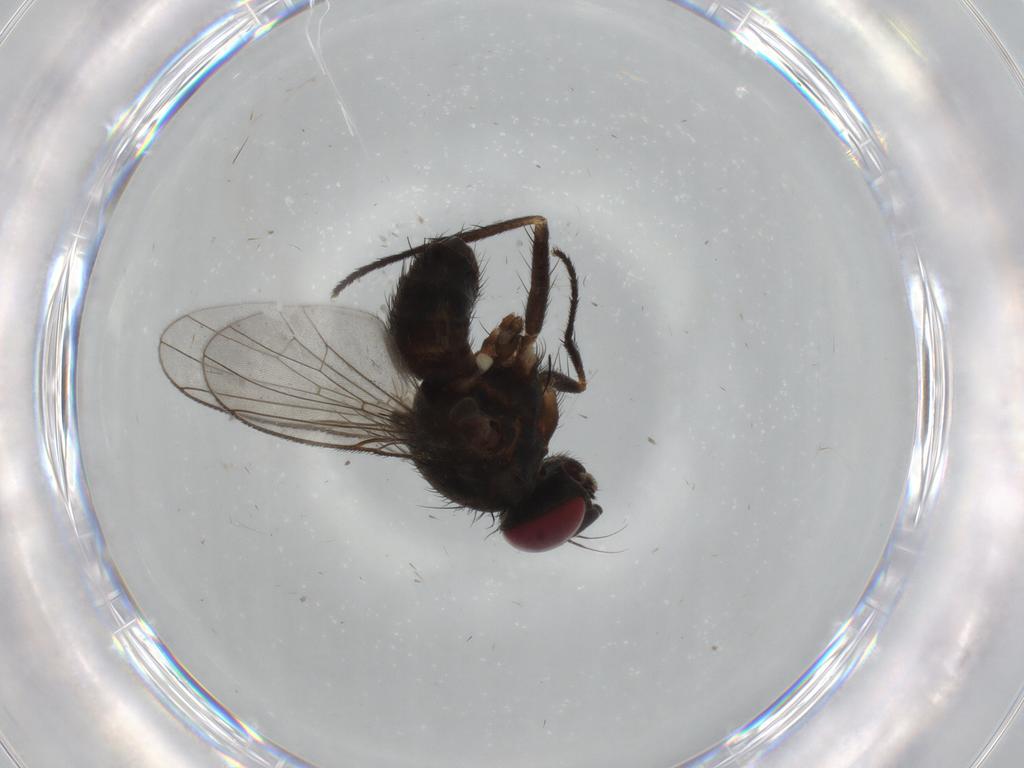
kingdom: Animalia
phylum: Arthropoda
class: Insecta
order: Diptera
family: Muscidae
